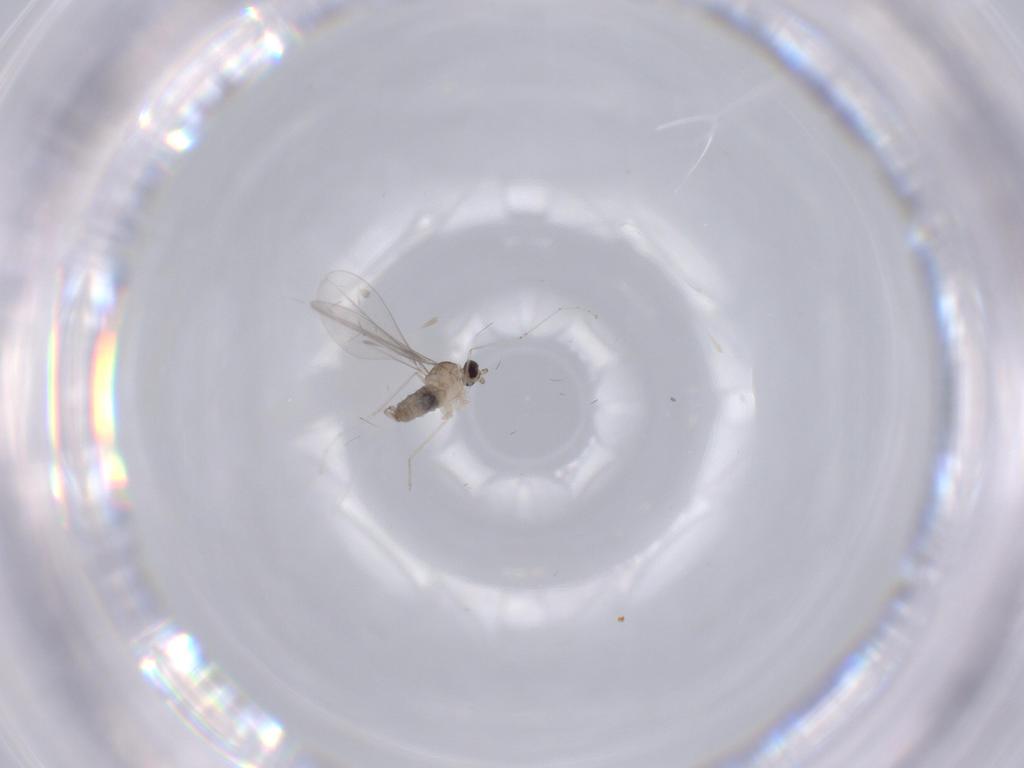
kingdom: Animalia
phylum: Arthropoda
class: Insecta
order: Diptera
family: Cecidomyiidae
